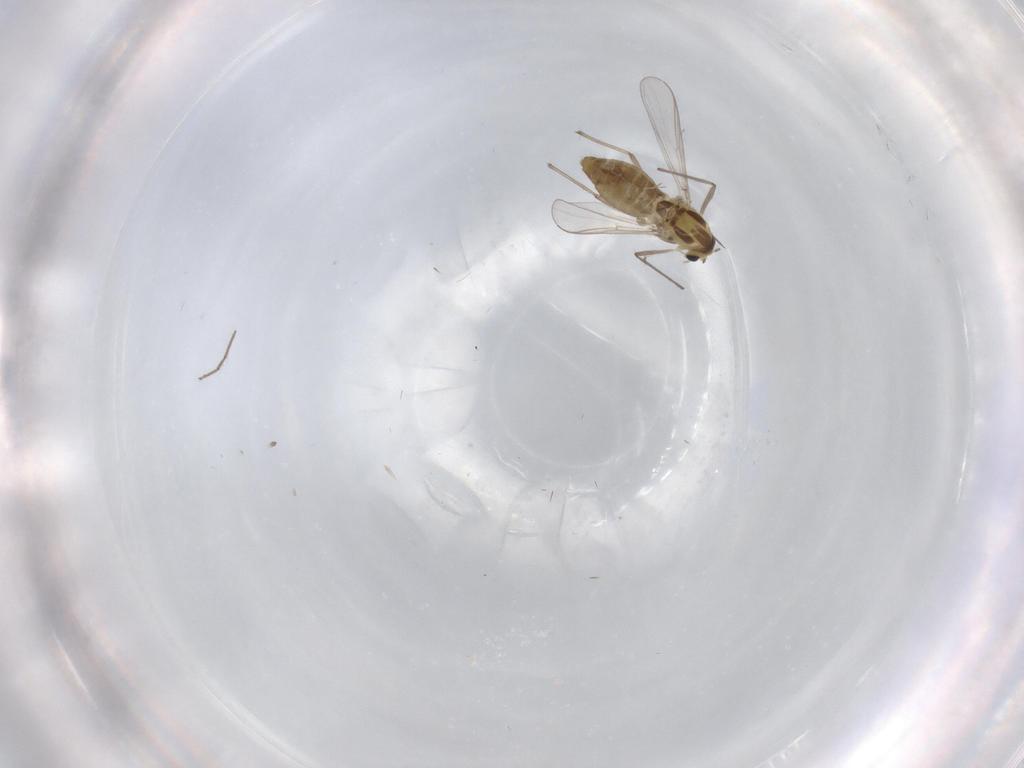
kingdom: Animalia
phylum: Arthropoda
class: Insecta
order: Diptera
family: Chironomidae
